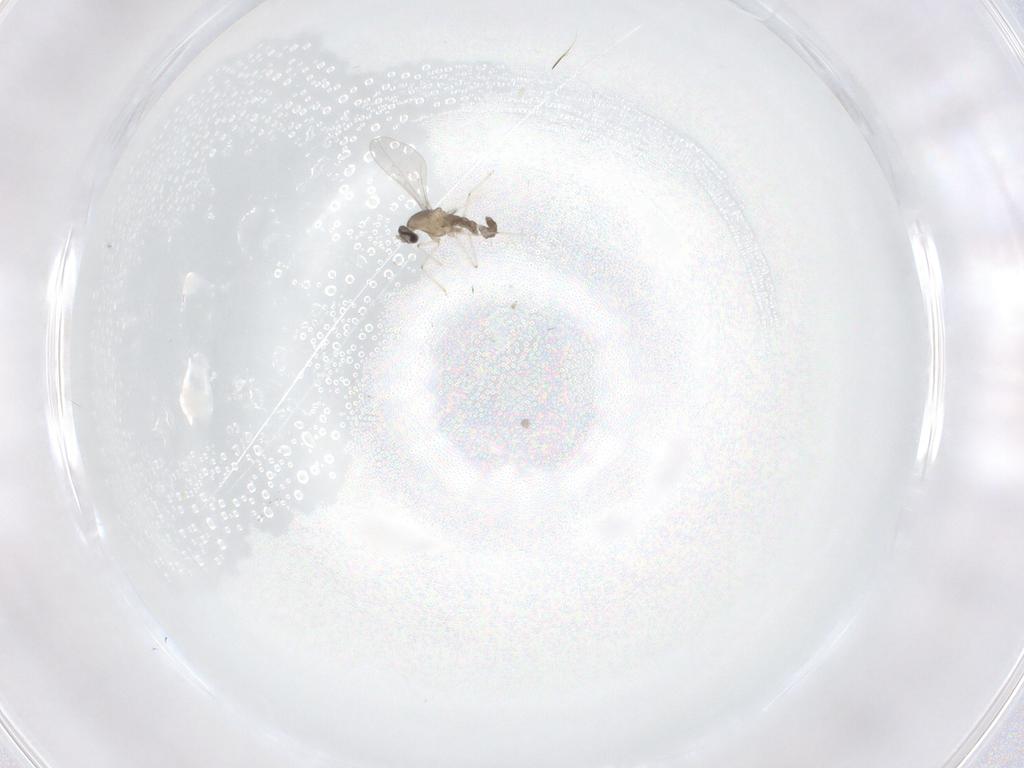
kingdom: Animalia
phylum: Arthropoda
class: Insecta
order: Diptera
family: Cecidomyiidae
